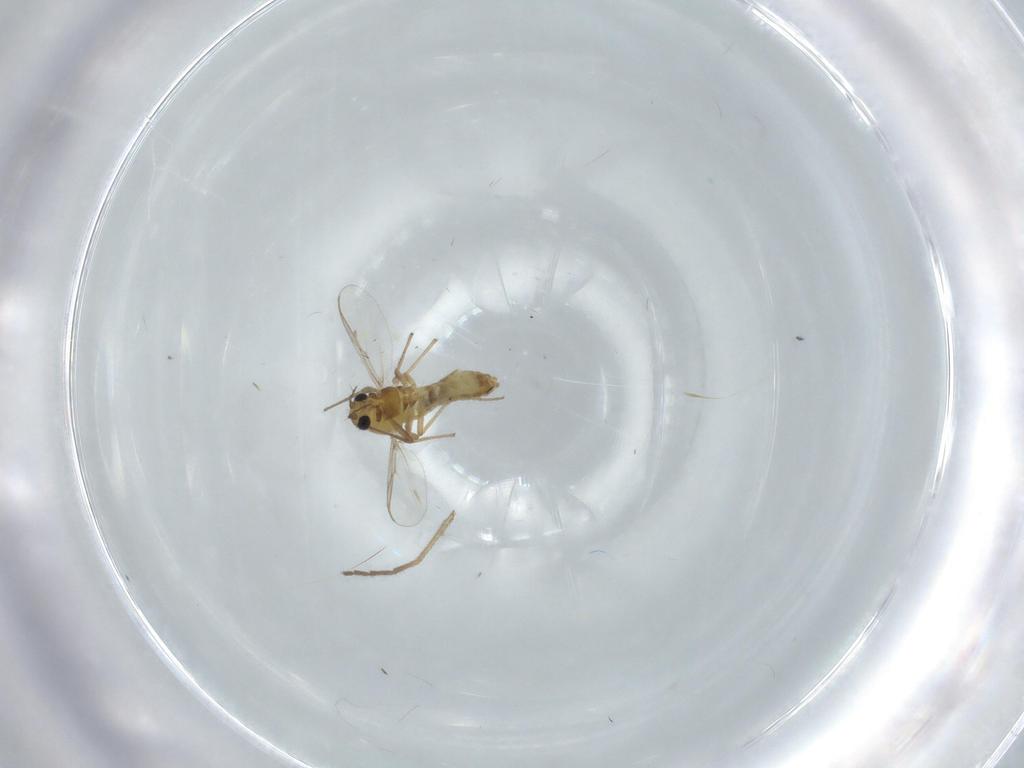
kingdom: Animalia
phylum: Arthropoda
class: Insecta
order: Diptera
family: Chironomidae
